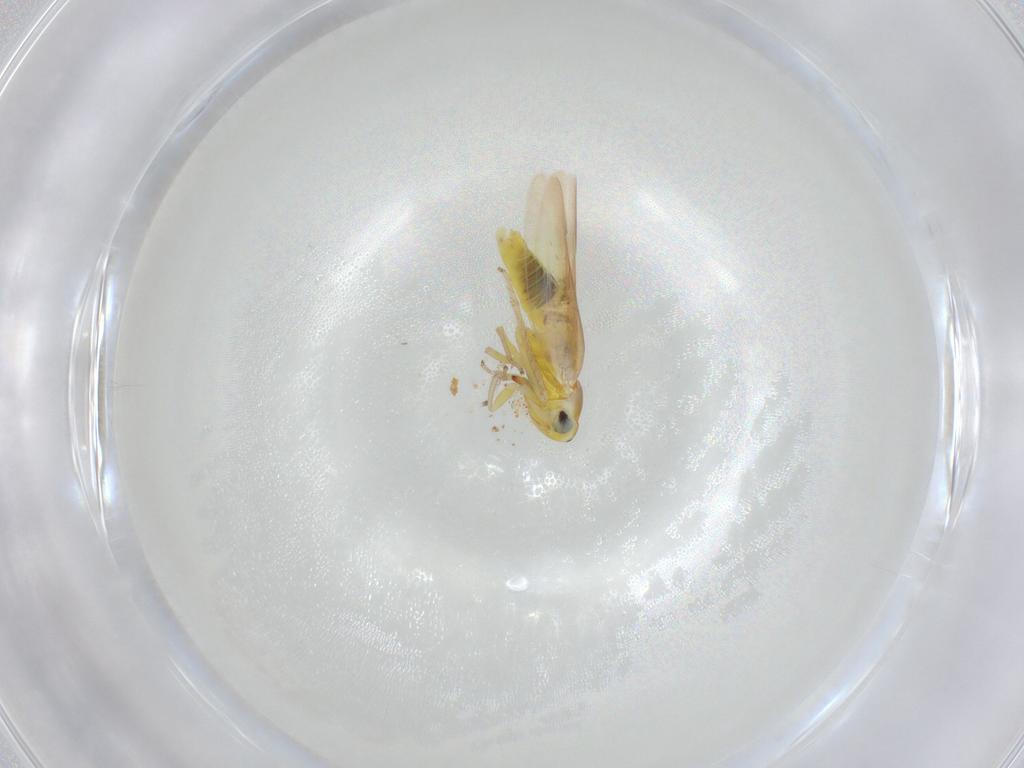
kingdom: Animalia
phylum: Arthropoda
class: Insecta
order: Hemiptera
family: Cicadellidae
